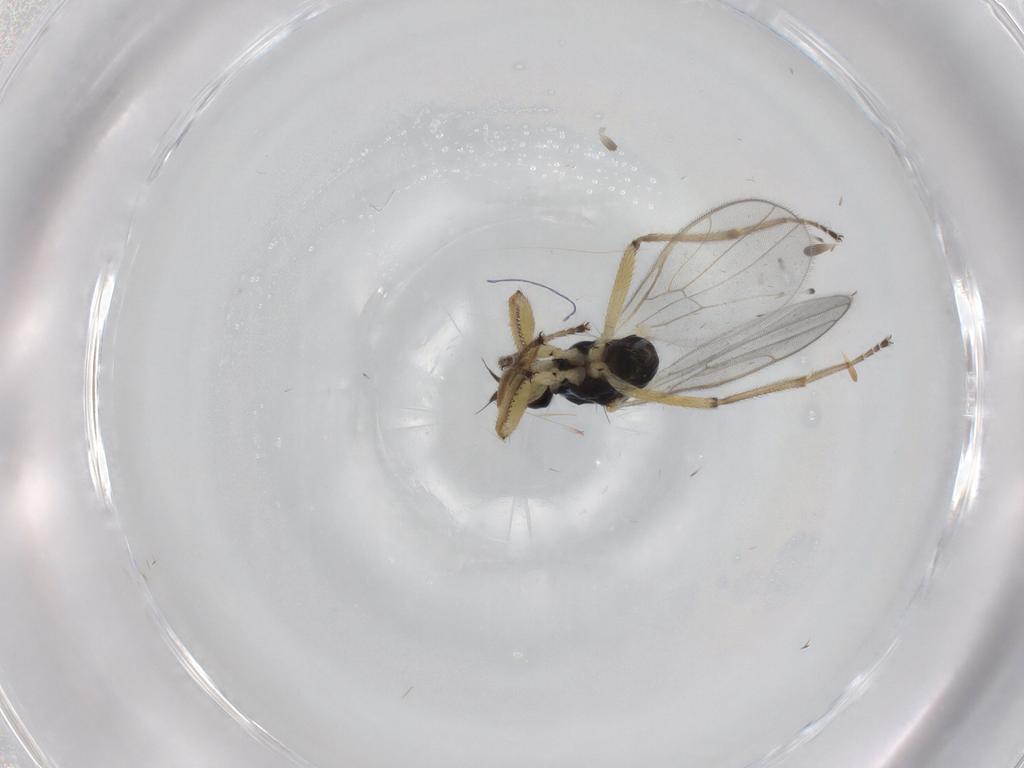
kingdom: Animalia
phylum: Arthropoda
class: Insecta
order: Diptera
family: Hybotidae
